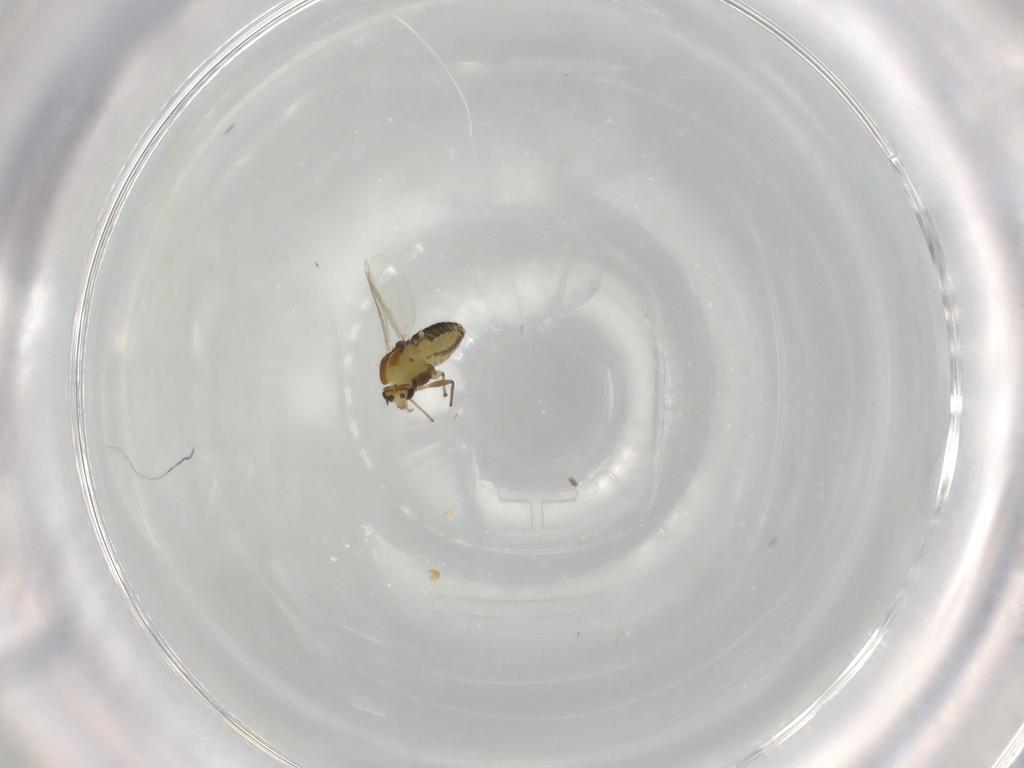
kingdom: Animalia
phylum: Arthropoda
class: Insecta
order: Diptera
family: Chironomidae
